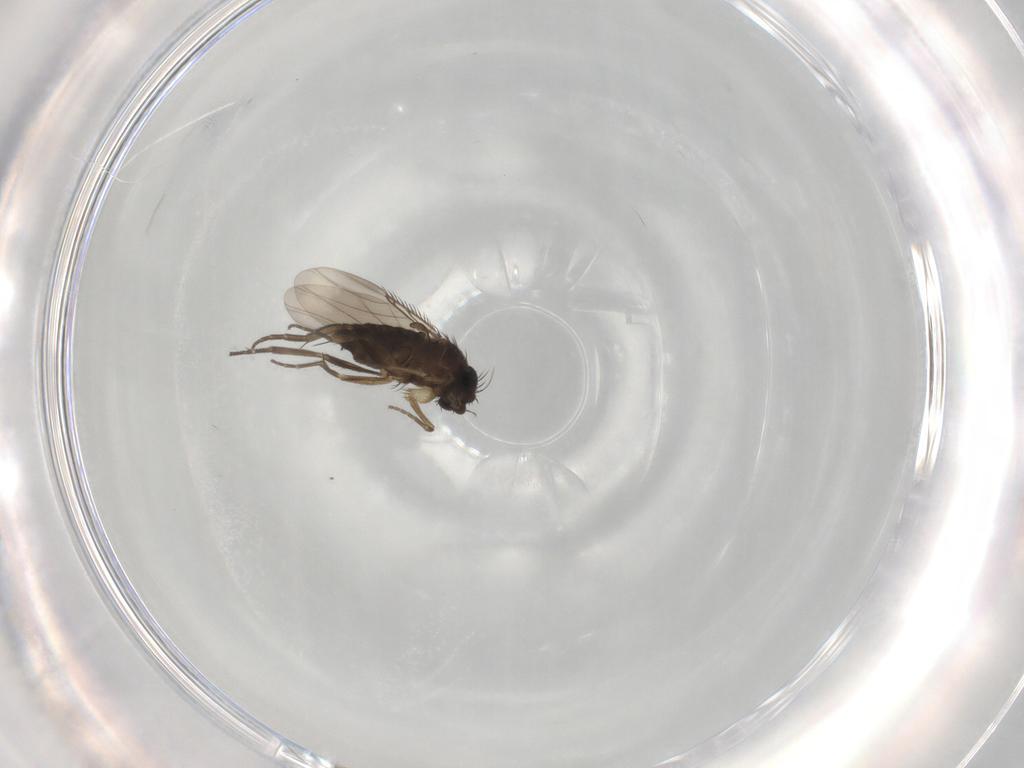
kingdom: Animalia
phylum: Arthropoda
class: Insecta
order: Diptera
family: Phoridae
